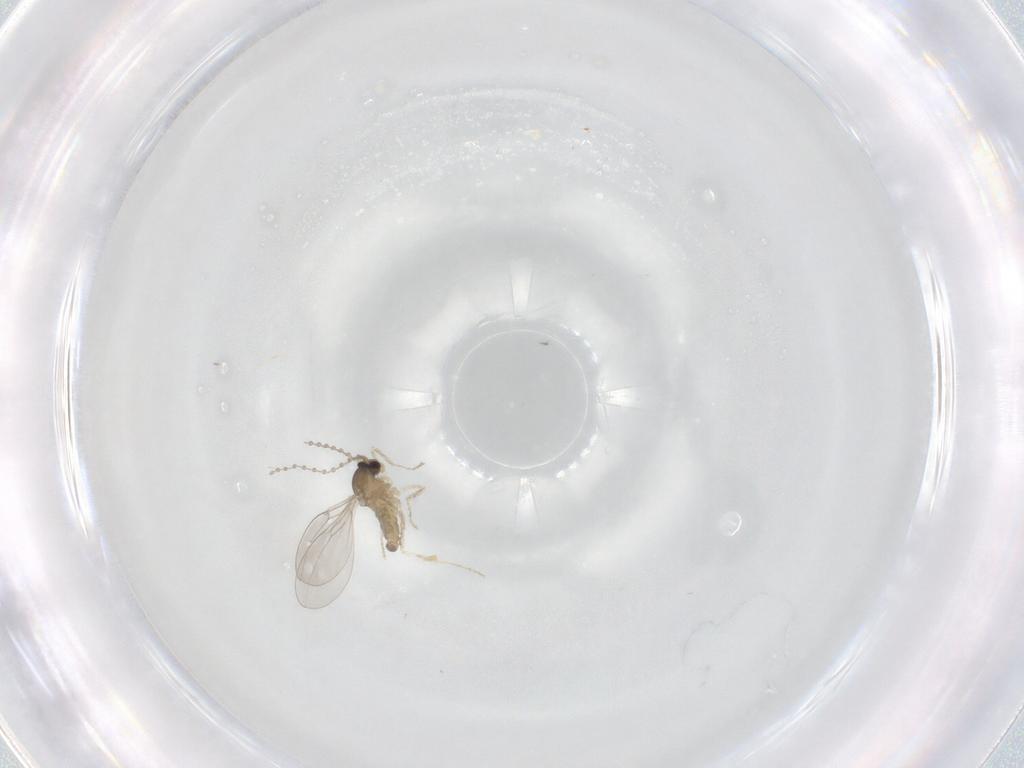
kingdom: Animalia
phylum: Arthropoda
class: Insecta
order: Diptera
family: Cecidomyiidae
